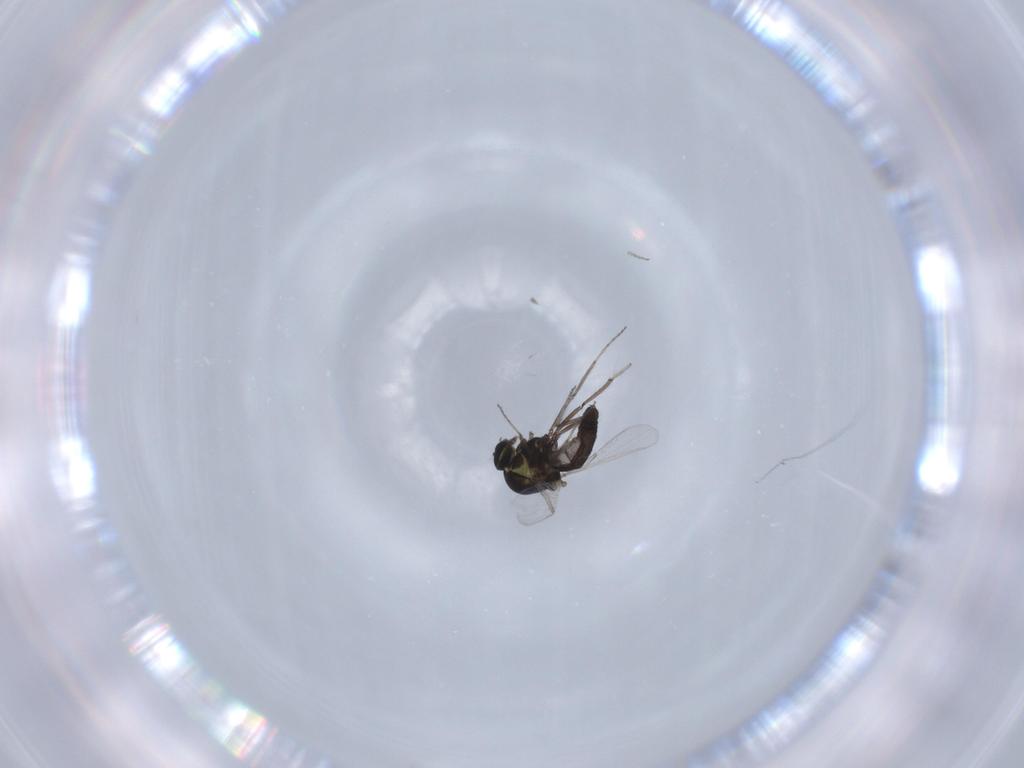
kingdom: Animalia
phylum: Arthropoda
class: Insecta
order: Diptera
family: Ceratopogonidae
